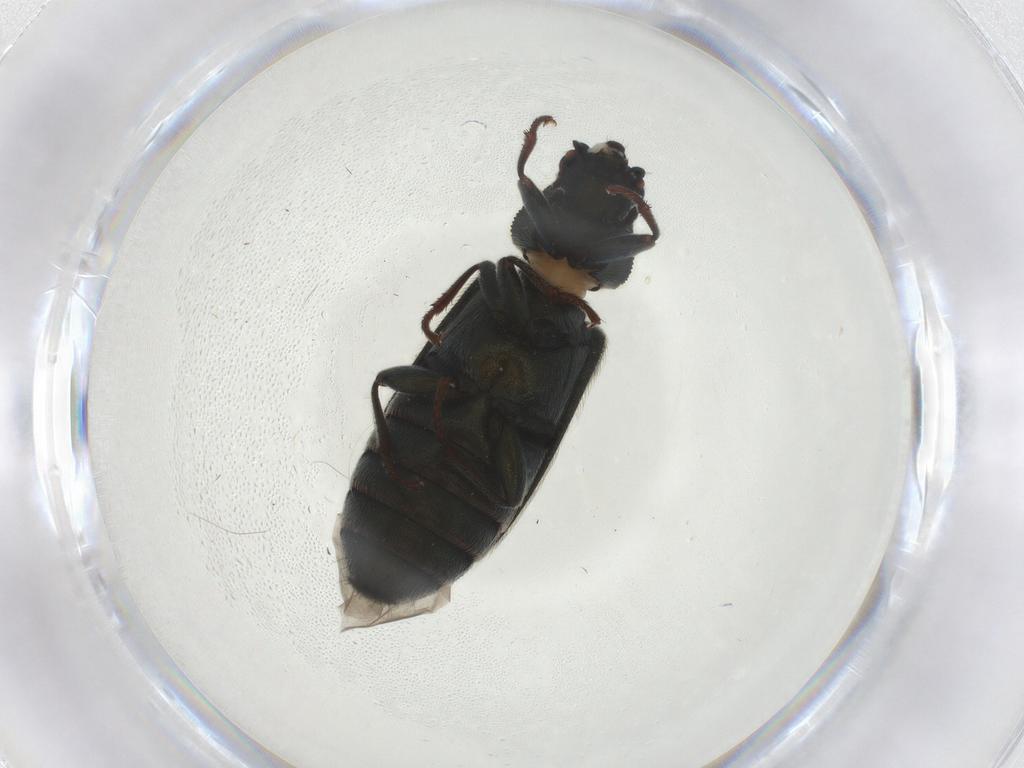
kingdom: Animalia
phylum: Arthropoda
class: Insecta
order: Coleoptera
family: Melyridae
